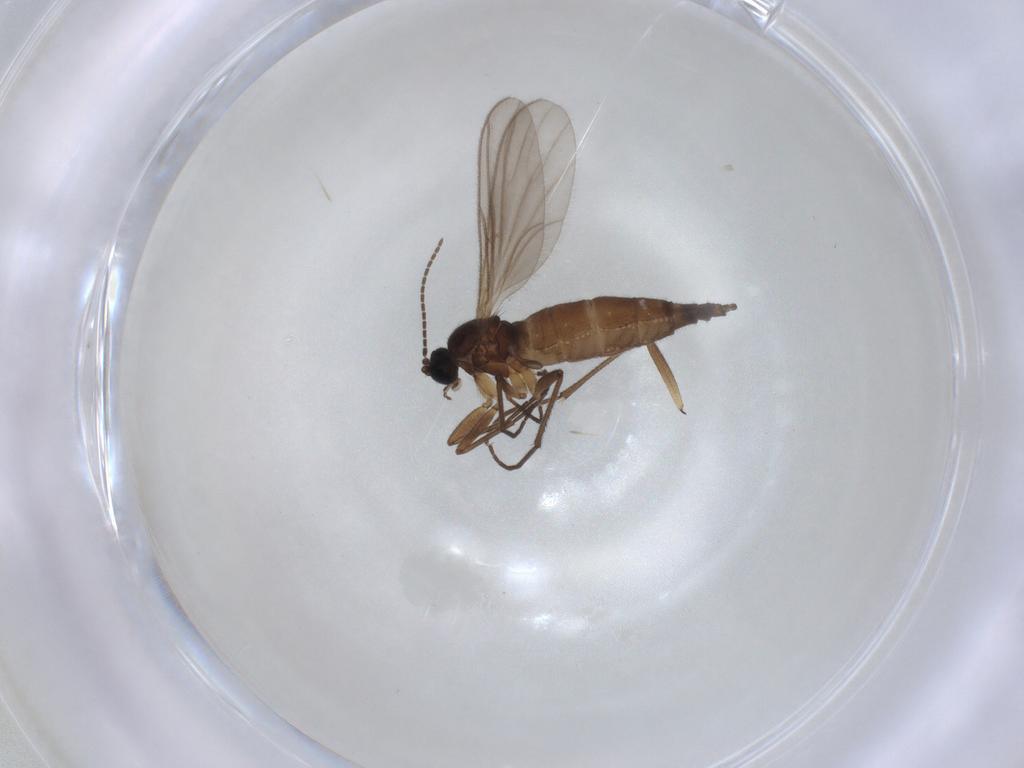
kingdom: Animalia
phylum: Arthropoda
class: Insecta
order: Diptera
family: Sciaridae
